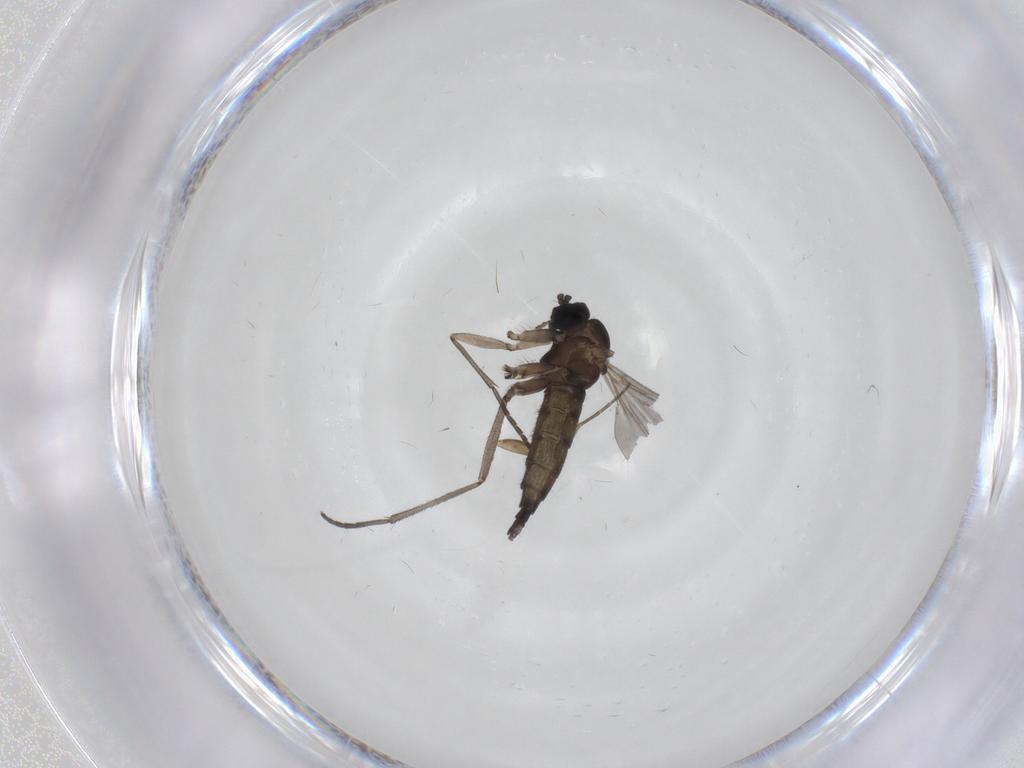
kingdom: Animalia
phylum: Arthropoda
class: Insecta
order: Diptera
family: Sciaridae
